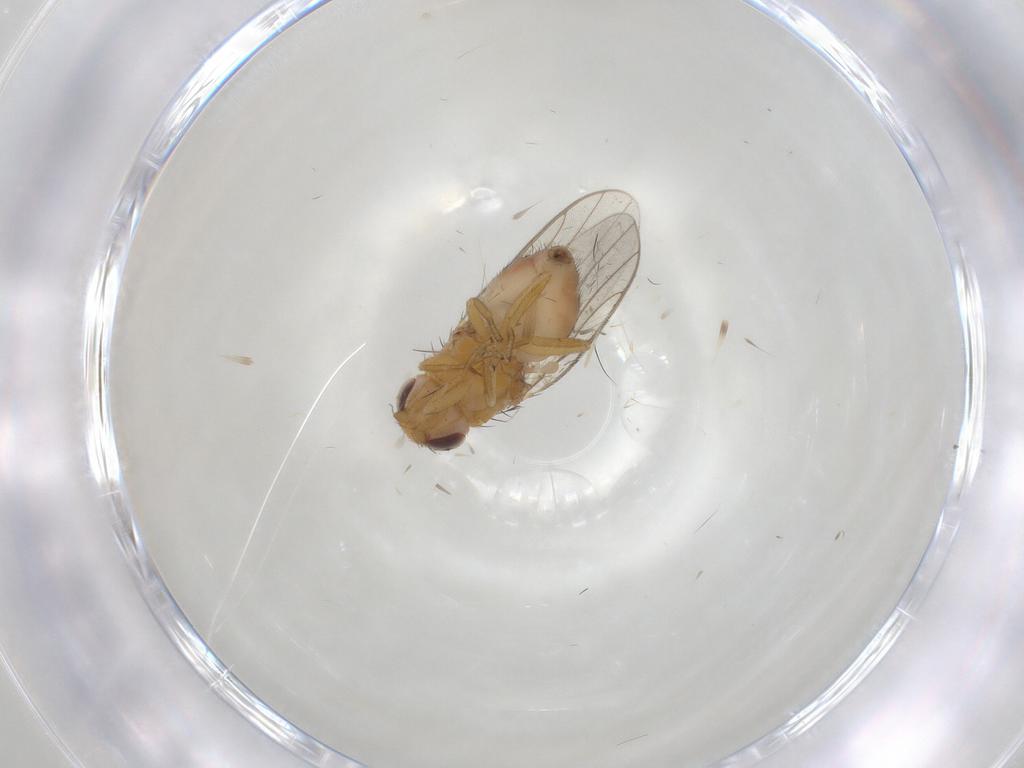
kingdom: Animalia
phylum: Arthropoda
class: Insecta
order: Diptera
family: Chloropidae
